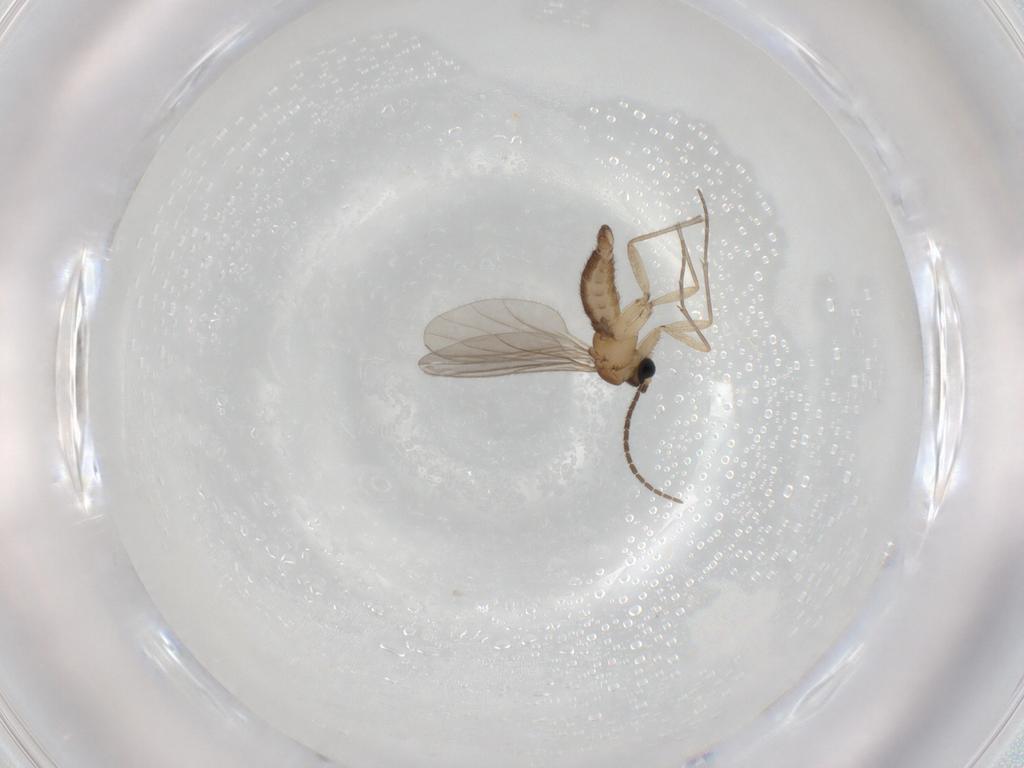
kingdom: Animalia
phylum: Arthropoda
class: Insecta
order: Diptera
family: Sciaridae
